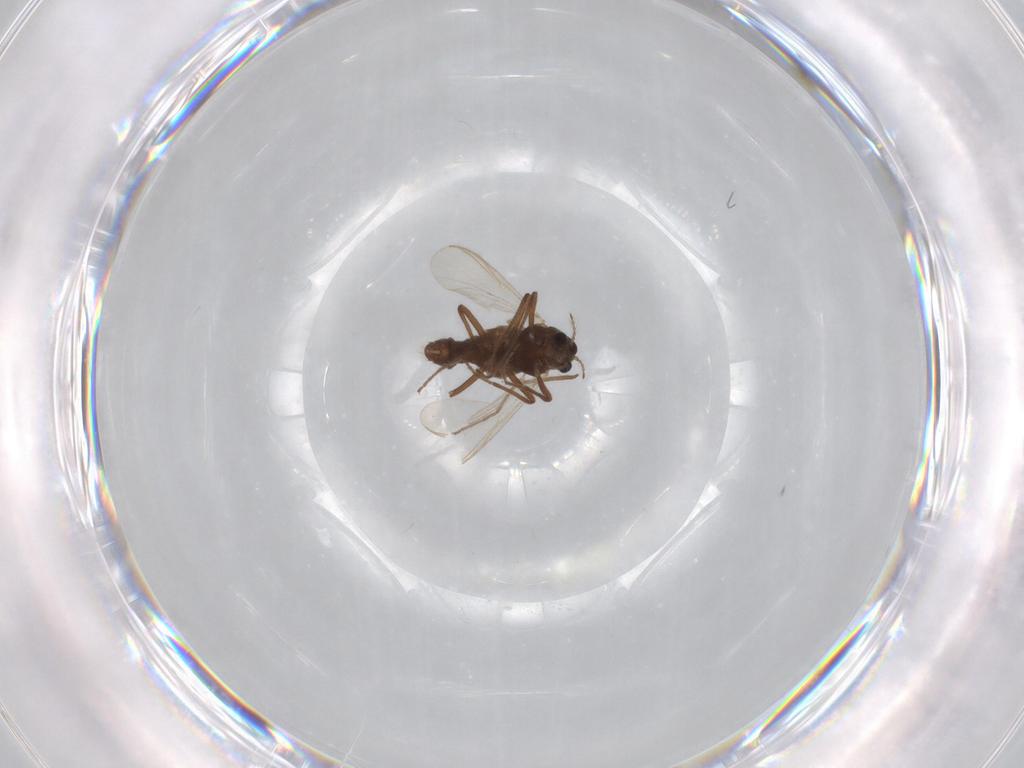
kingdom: Animalia
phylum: Arthropoda
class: Insecta
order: Diptera
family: Chironomidae
